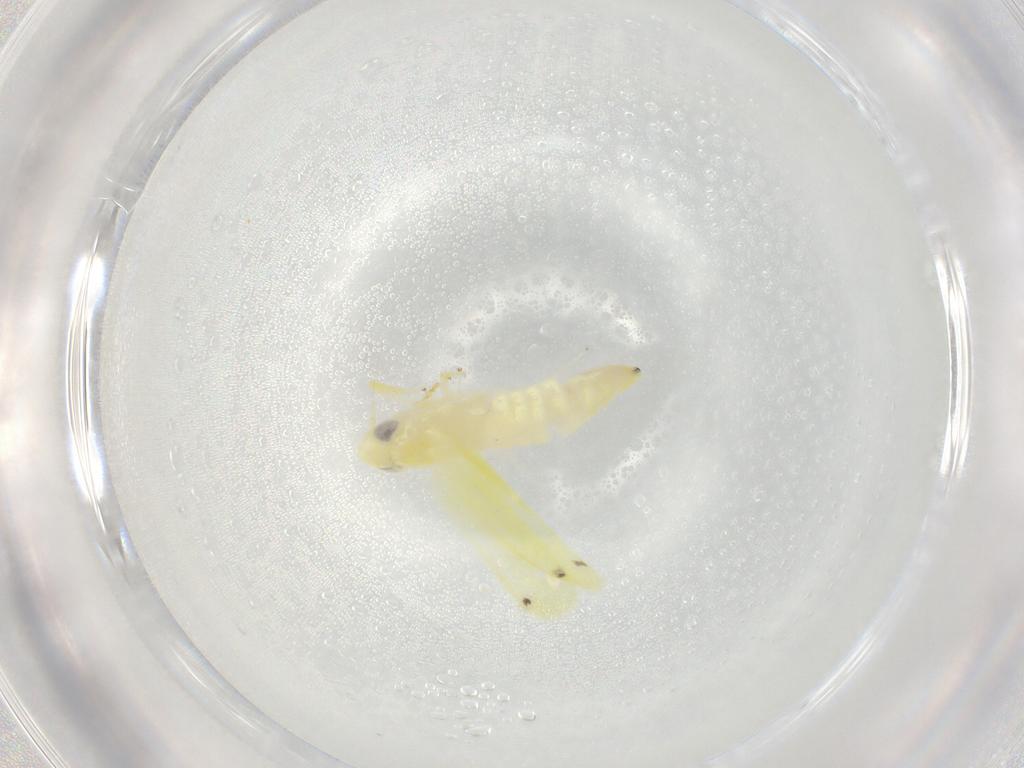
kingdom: Animalia
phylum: Arthropoda
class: Insecta
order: Hemiptera
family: Cicadellidae
